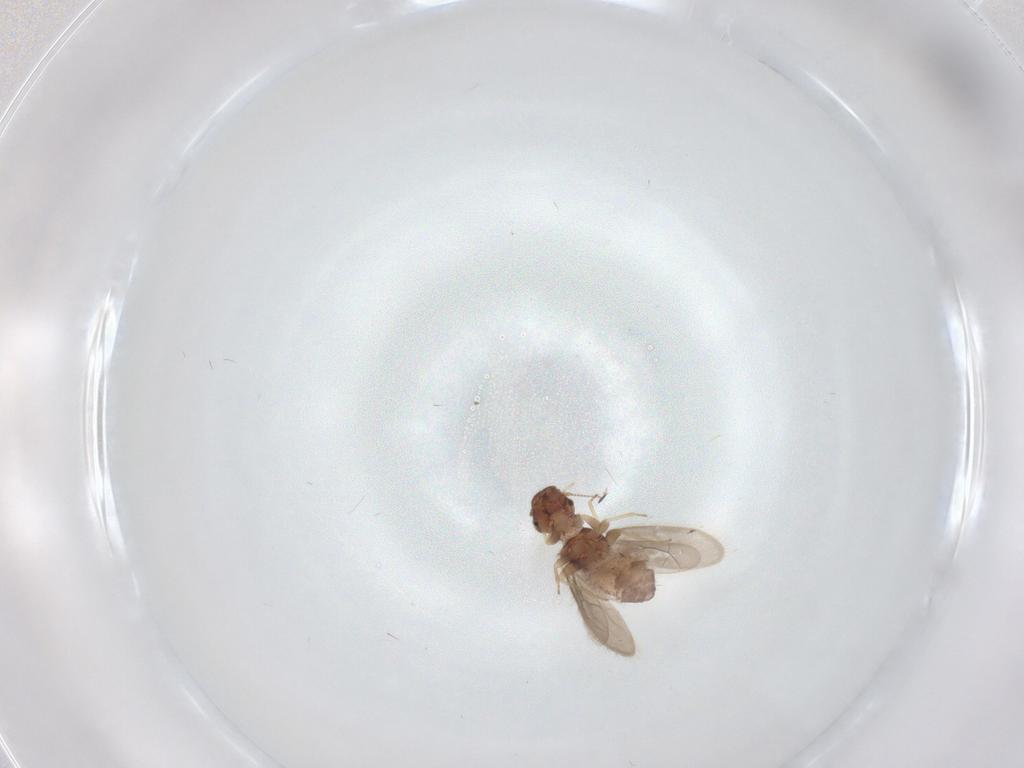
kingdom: Animalia
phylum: Arthropoda
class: Insecta
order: Psocodea
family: Archipsocidae
